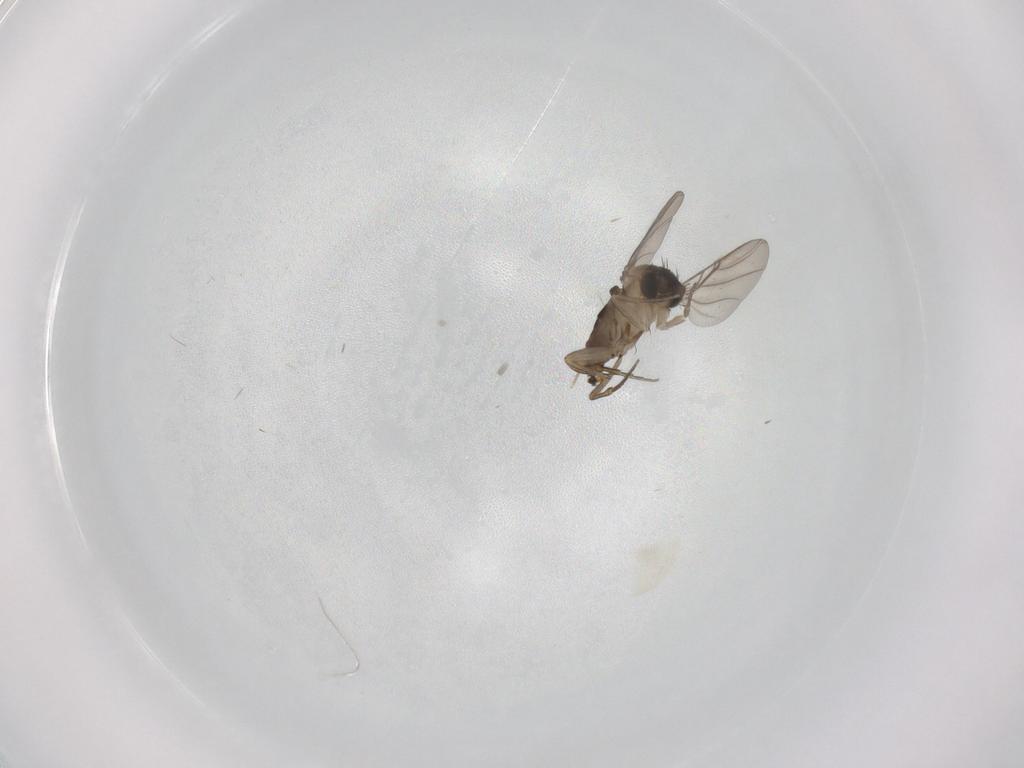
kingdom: Animalia
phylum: Arthropoda
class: Insecta
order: Diptera
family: Phoridae
